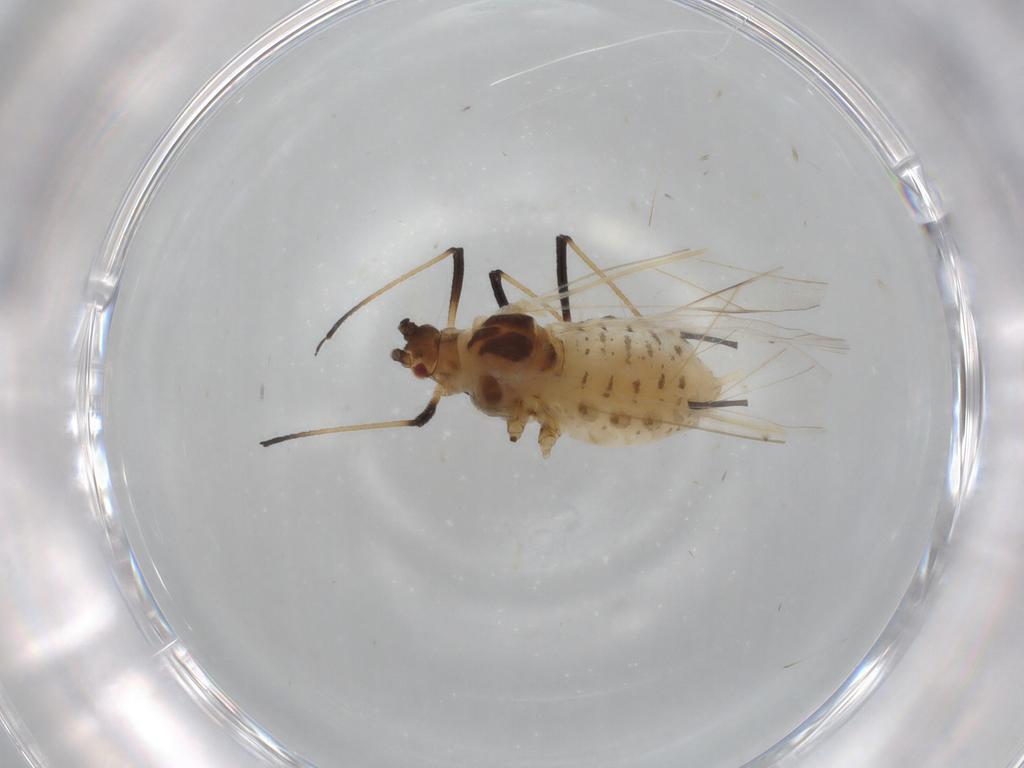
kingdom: Animalia
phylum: Arthropoda
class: Insecta
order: Hemiptera
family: Aphididae
